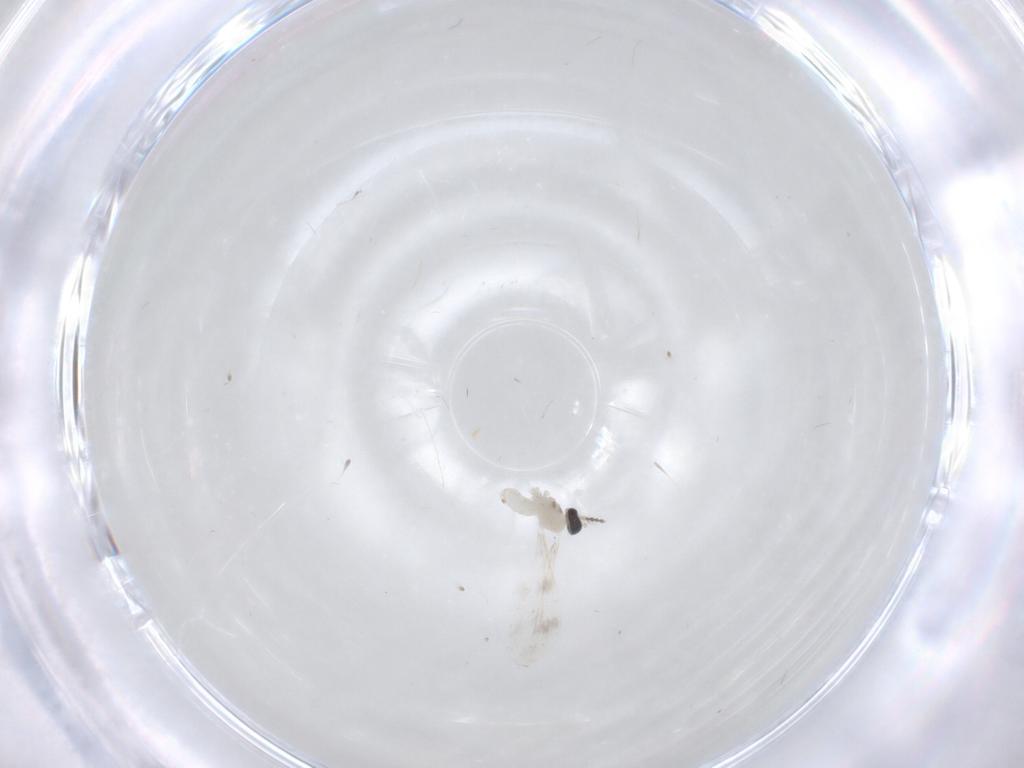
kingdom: Animalia
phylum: Arthropoda
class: Insecta
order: Diptera
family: Cecidomyiidae
